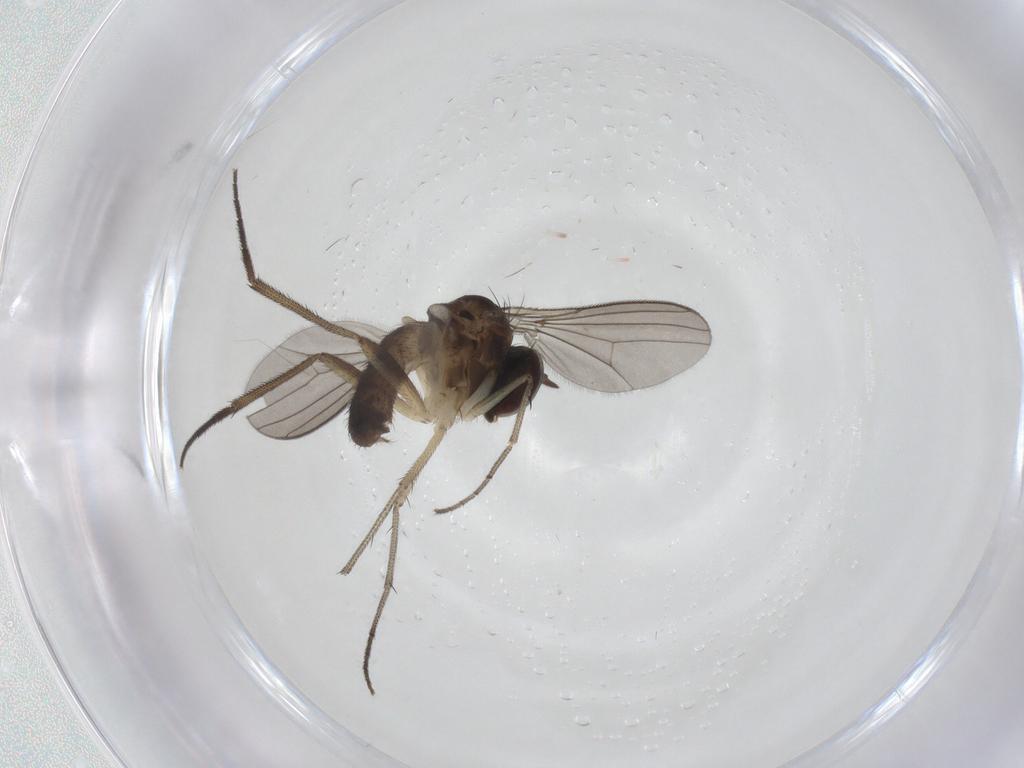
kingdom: Animalia
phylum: Arthropoda
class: Insecta
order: Diptera
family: Dolichopodidae
